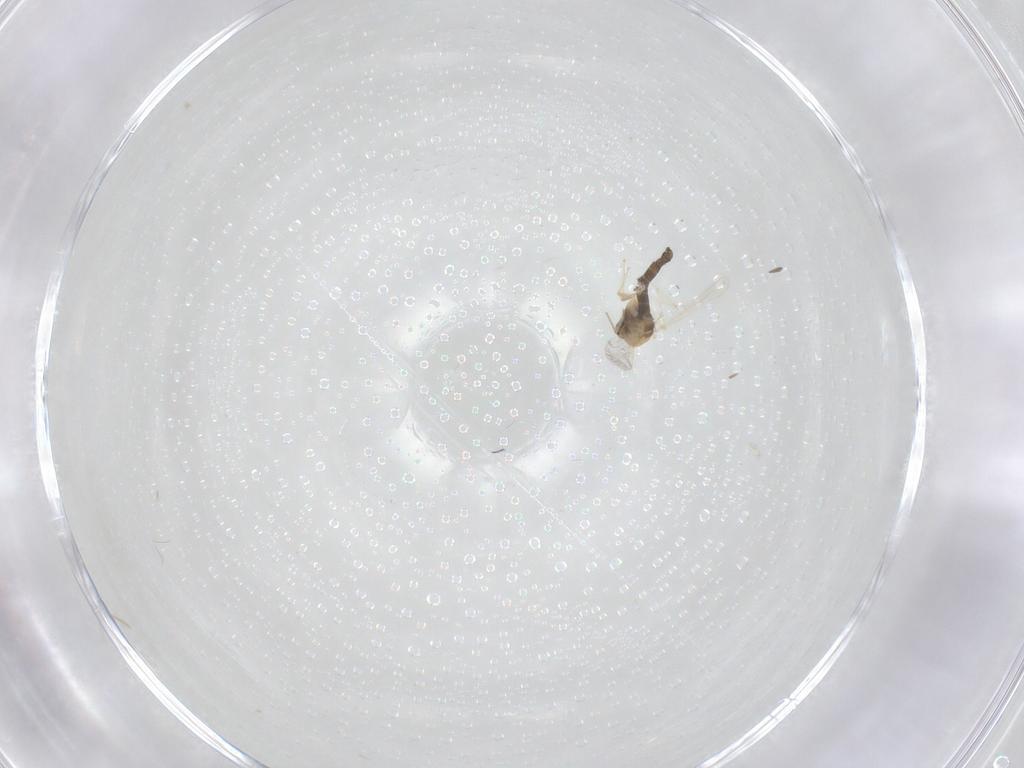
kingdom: Animalia
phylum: Arthropoda
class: Insecta
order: Diptera
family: Chironomidae
